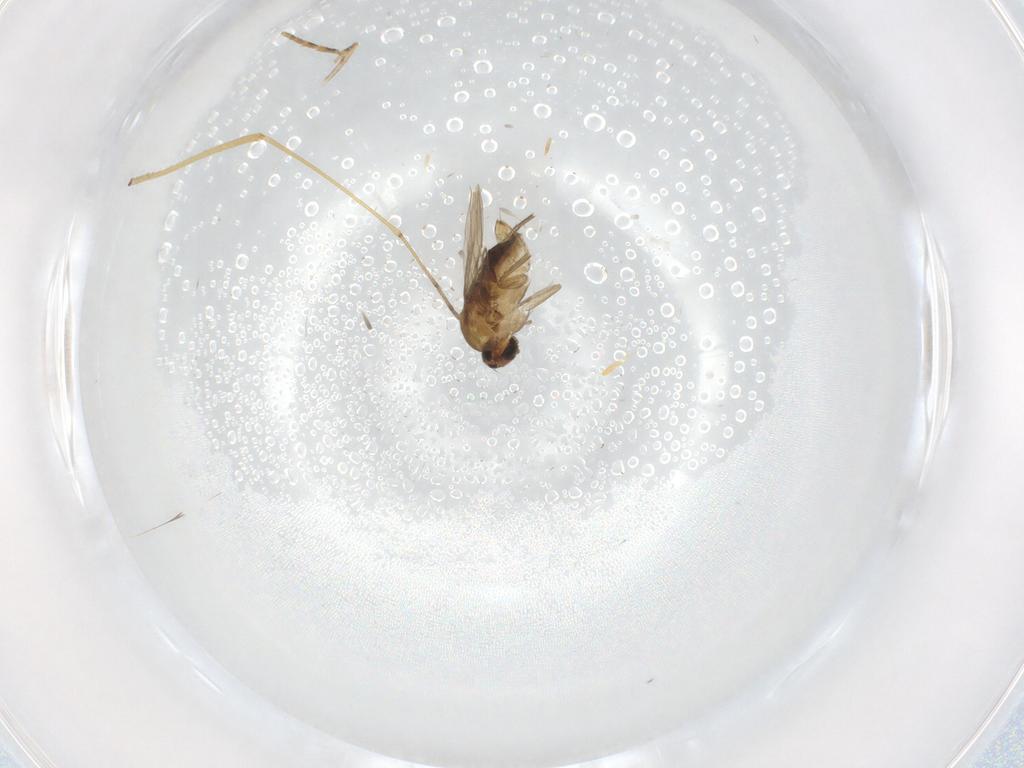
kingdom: Animalia
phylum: Arthropoda
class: Insecta
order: Diptera
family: Phoridae
